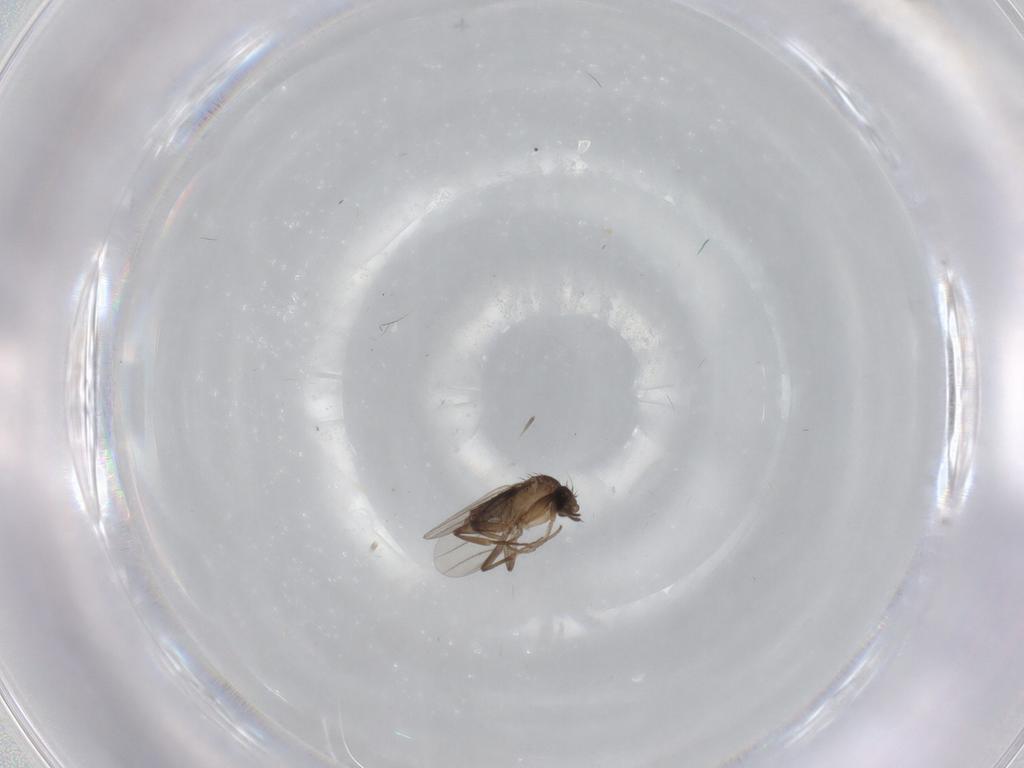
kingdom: Animalia
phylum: Arthropoda
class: Insecta
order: Diptera
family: Phoridae
